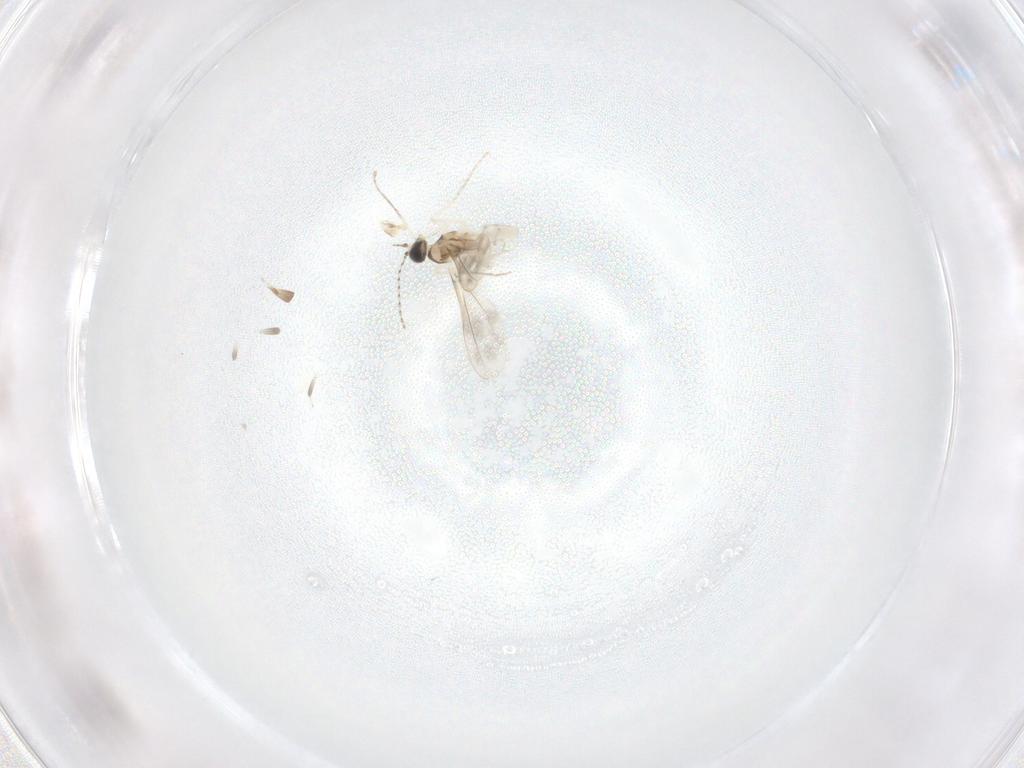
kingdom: Animalia
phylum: Arthropoda
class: Insecta
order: Diptera
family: Cecidomyiidae
